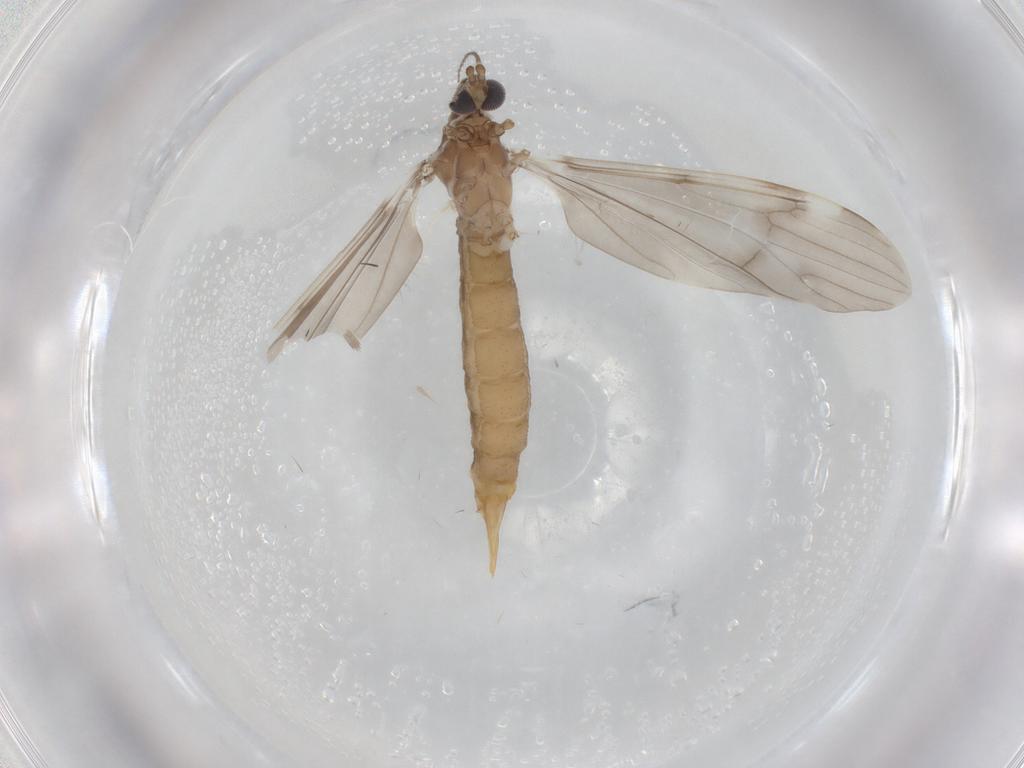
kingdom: Animalia
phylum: Arthropoda
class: Insecta
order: Diptera
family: Limoniidae
